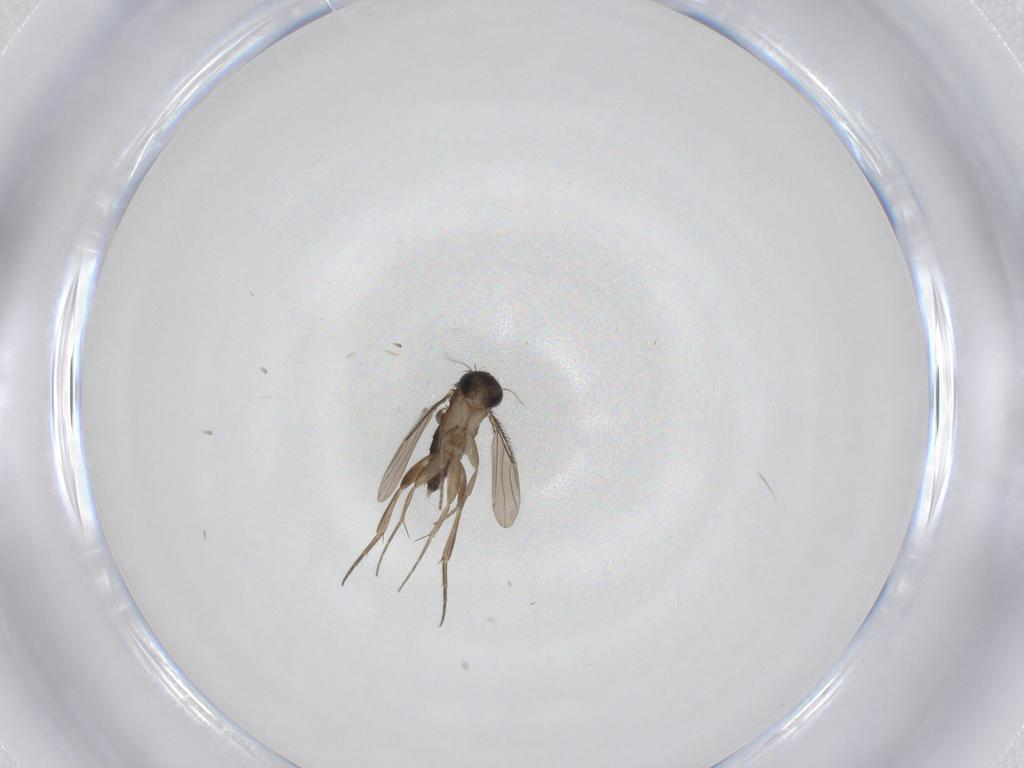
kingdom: Animalia
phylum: Arthropoda
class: Insecta
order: Diptera
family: Phoridae
